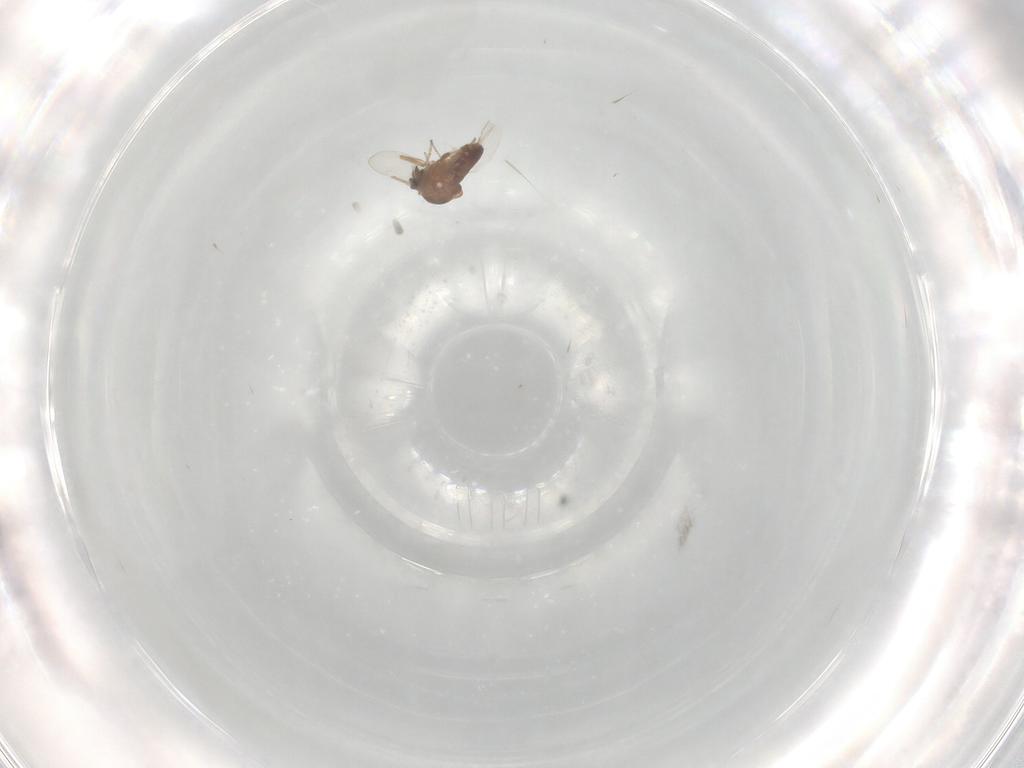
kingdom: Animalia
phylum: Arthropoda
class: Insecta
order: Diptera
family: Ceratopogonidae
